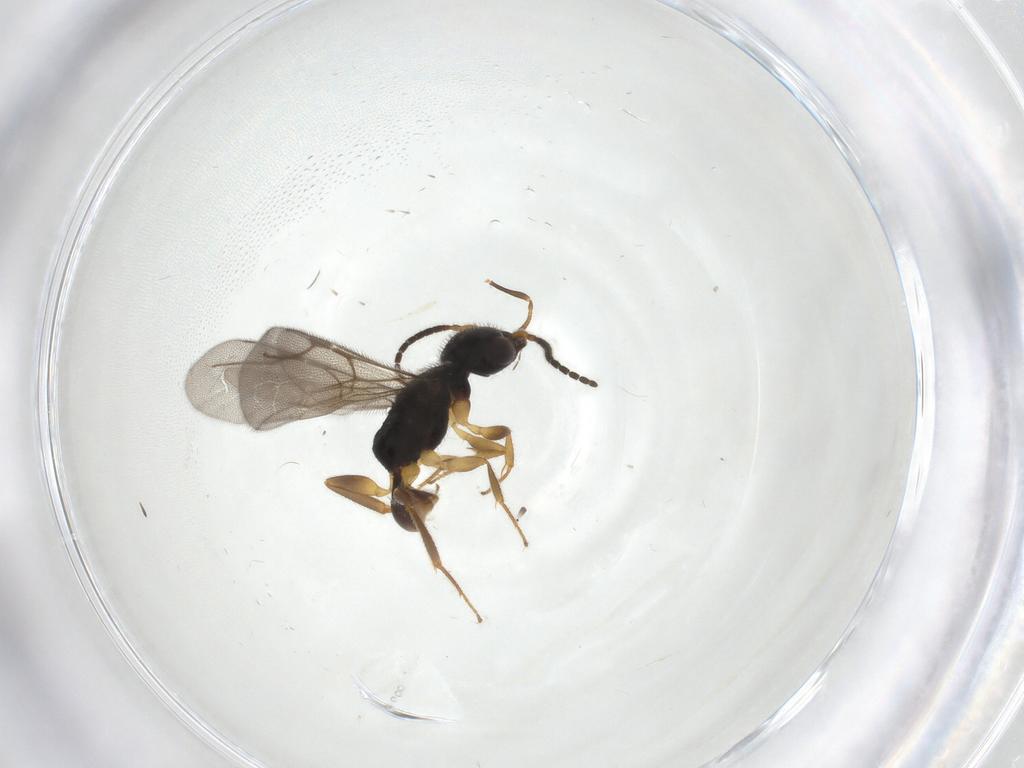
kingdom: Animalia
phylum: Arthropoda
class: Insecta
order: Hymenoptera
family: Bethylidae
